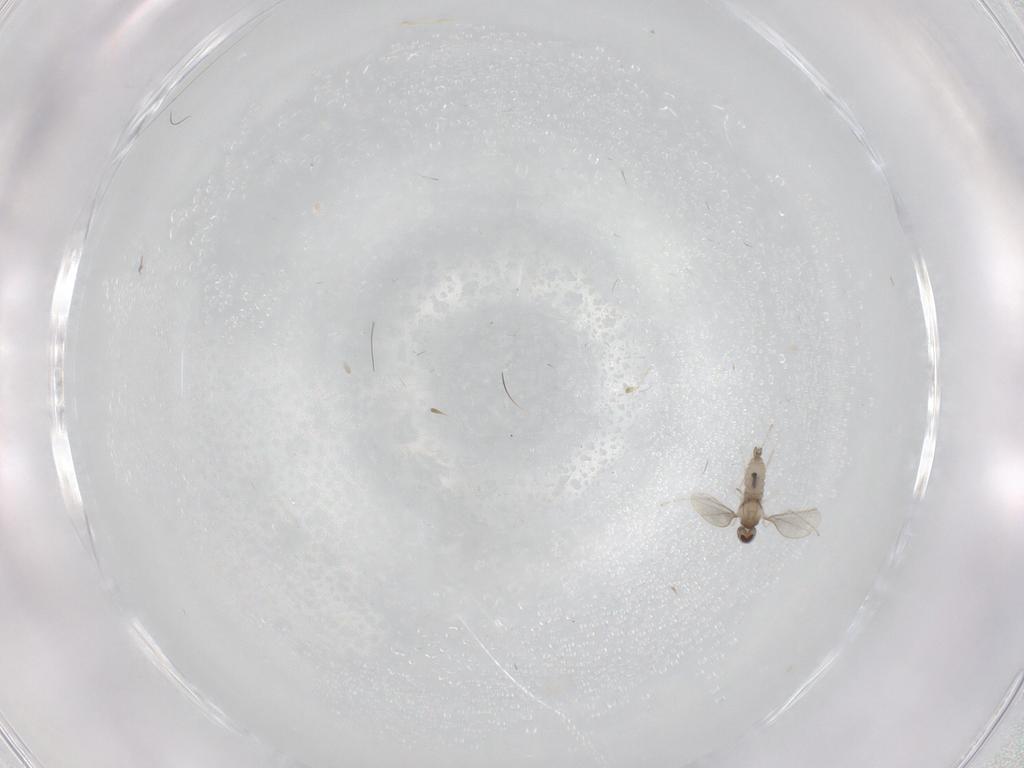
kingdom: Animalia
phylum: Arthropoda
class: Insecta
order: Diptera
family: Cecidomyiidae
